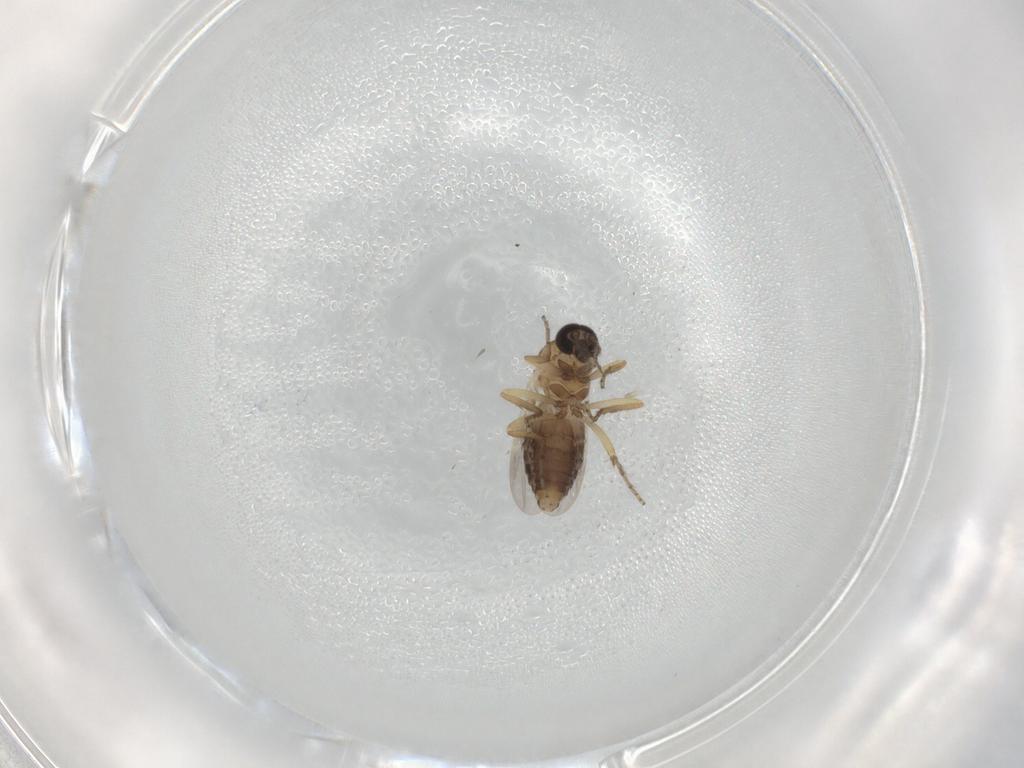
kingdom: Animalia
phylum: Arthropoda
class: Insecta
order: Diptera
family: Ceratopogonidae
